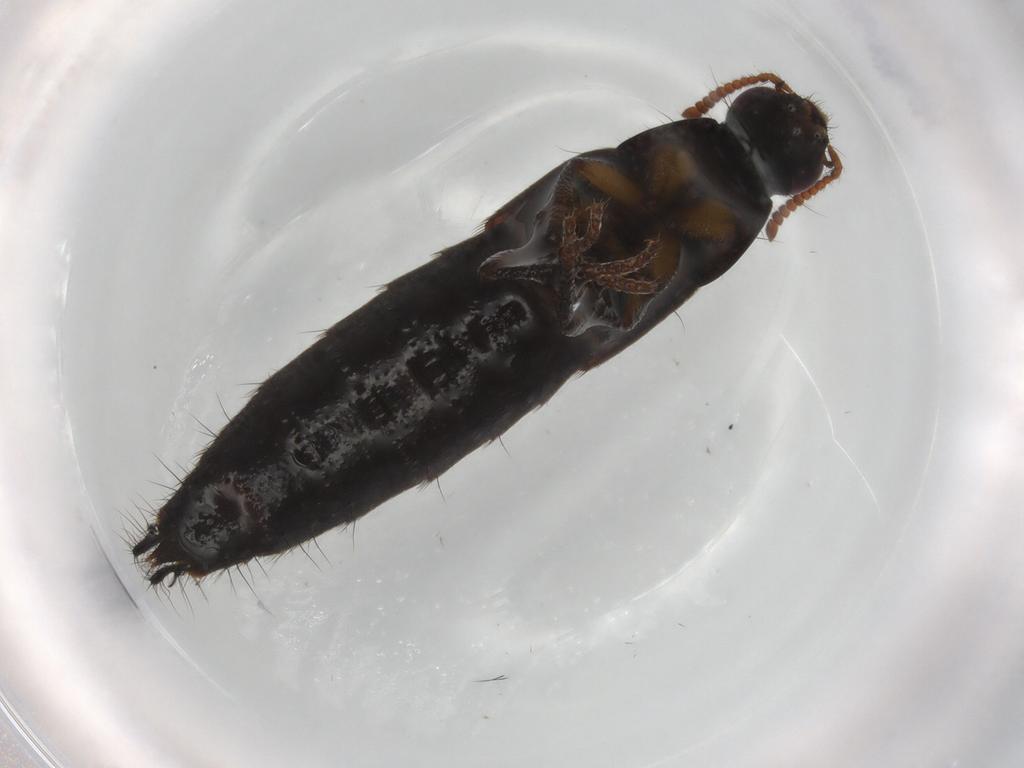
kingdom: Animalia
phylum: Arthropoda
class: Insecta
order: Coleoptera
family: Staphylinidae
